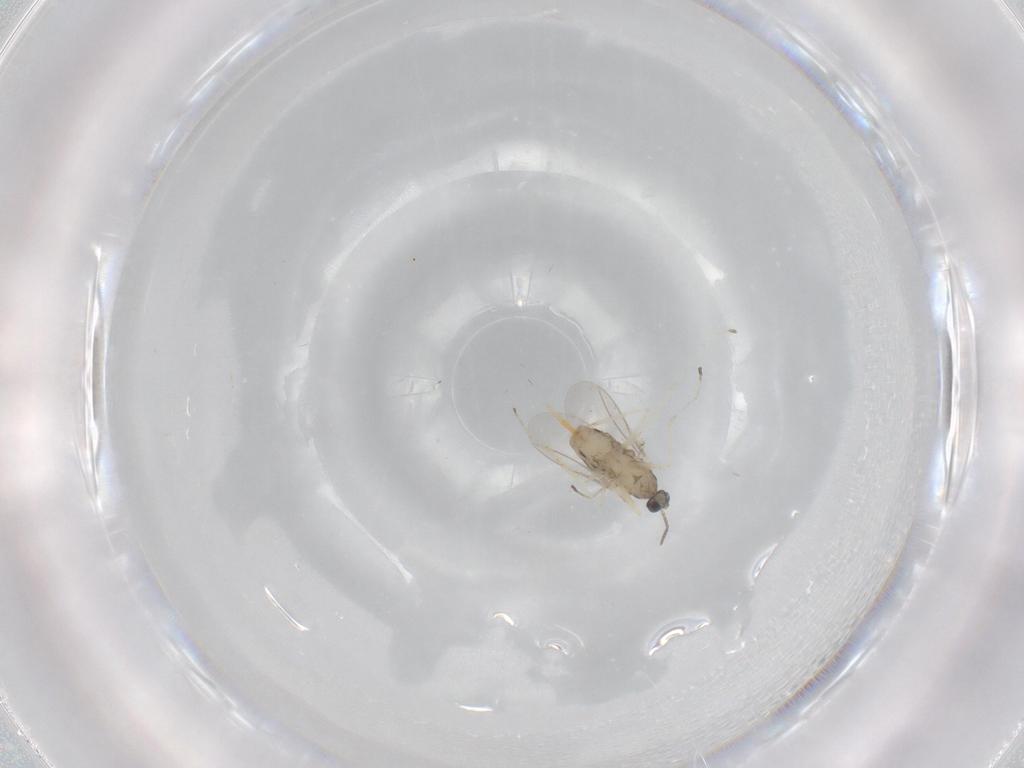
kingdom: Animalia
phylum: Arthropoda
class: Insecta
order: Diptera
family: Cecidomyiidae
